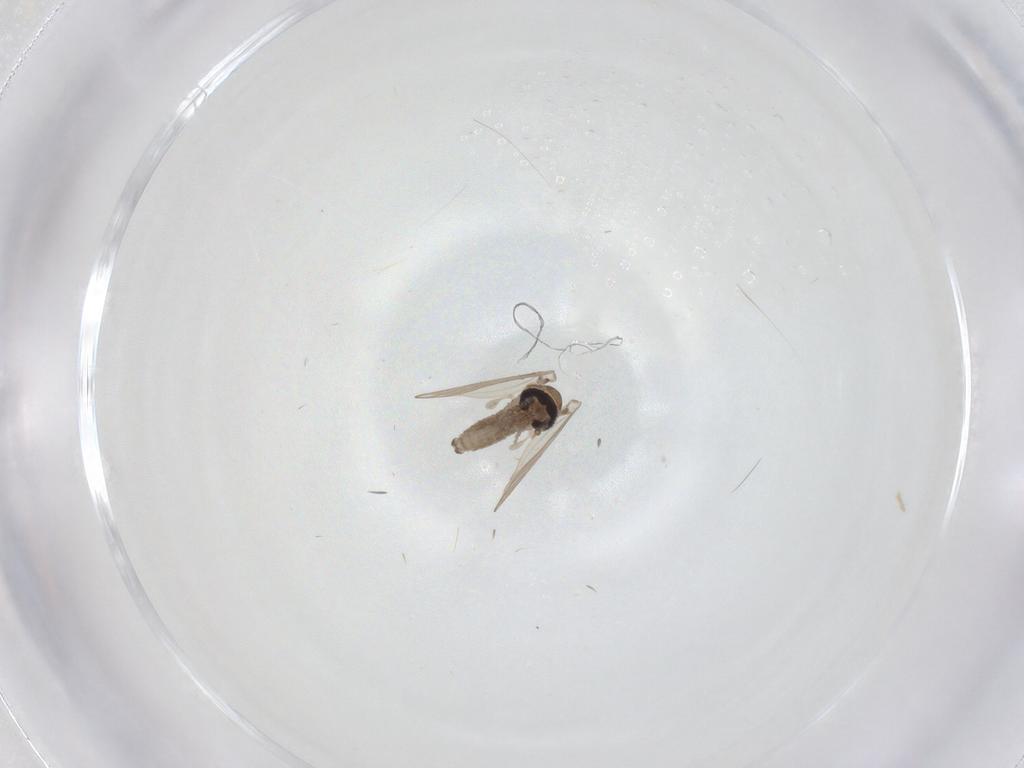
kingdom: Animalia
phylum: Arthropoda
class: Insecta
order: Diptera
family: Psychodidae
